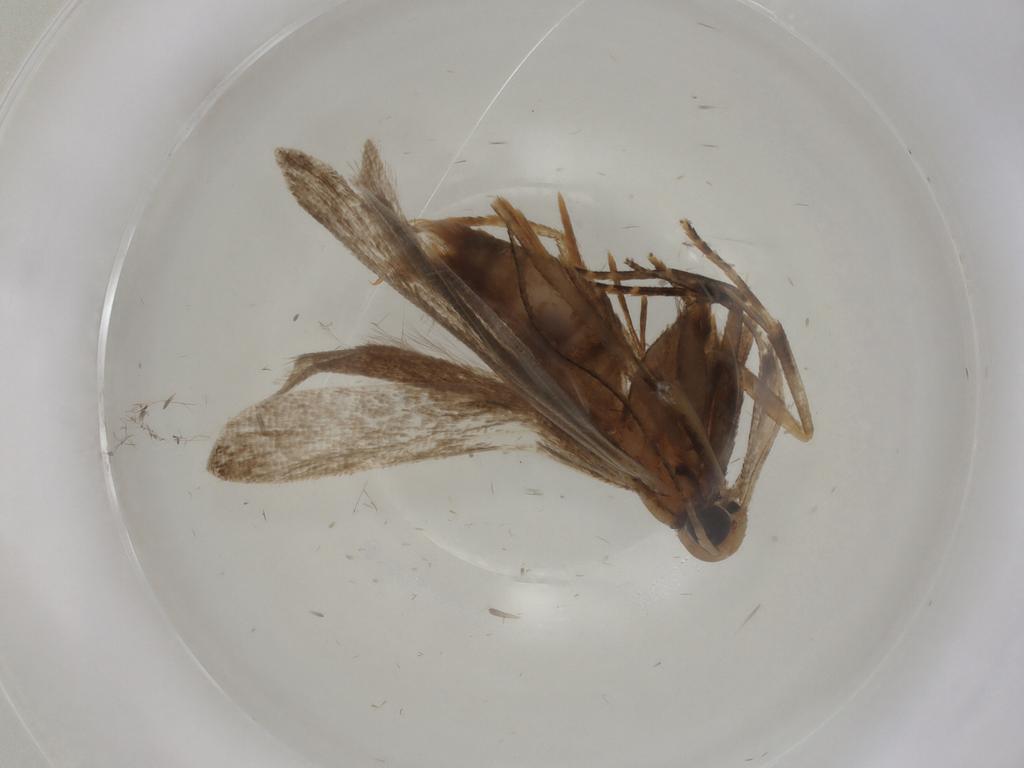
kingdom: Animalia
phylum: Arthropoda
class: Insecta
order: Lepidoptera
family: Gelechiidae
